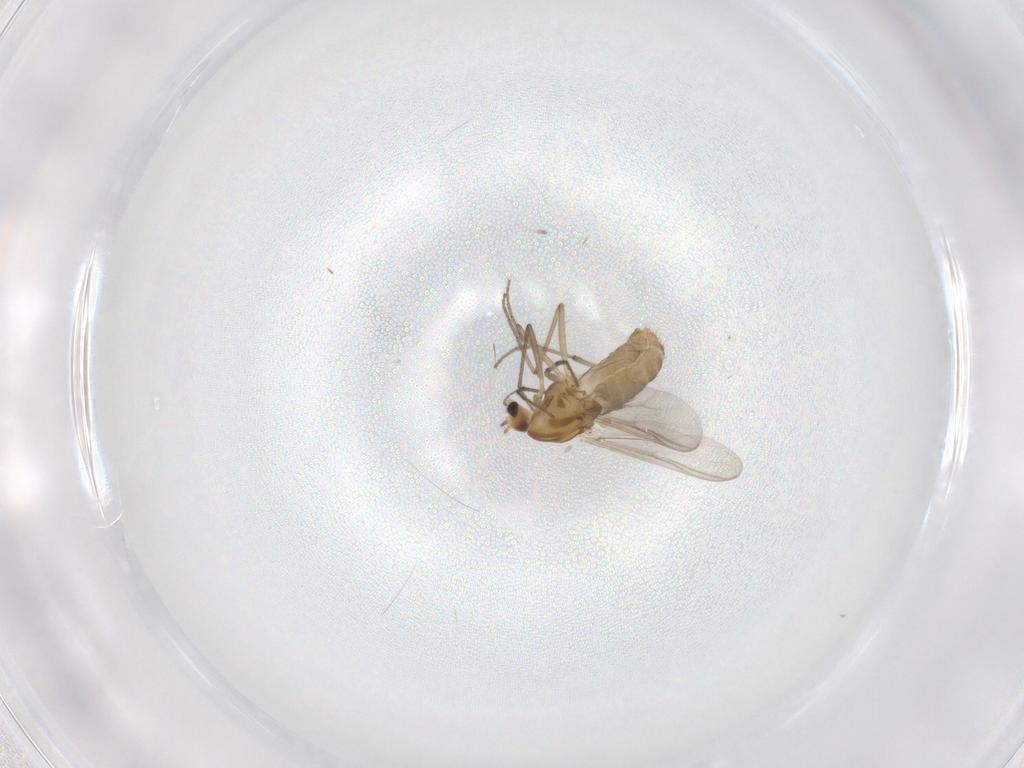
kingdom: Animalia
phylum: Arthropoda
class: Insecta
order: Diptera
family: Chironomidae
